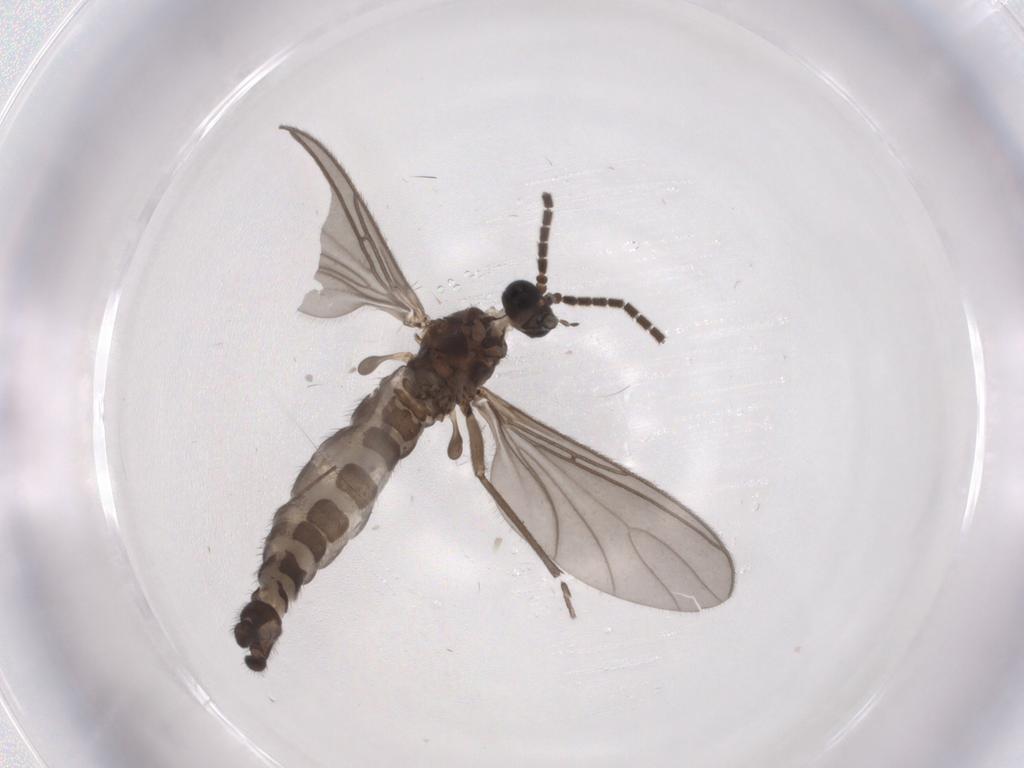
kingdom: Animalia
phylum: Arthropoda
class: Insecta
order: Diptera
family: Sciaridae
